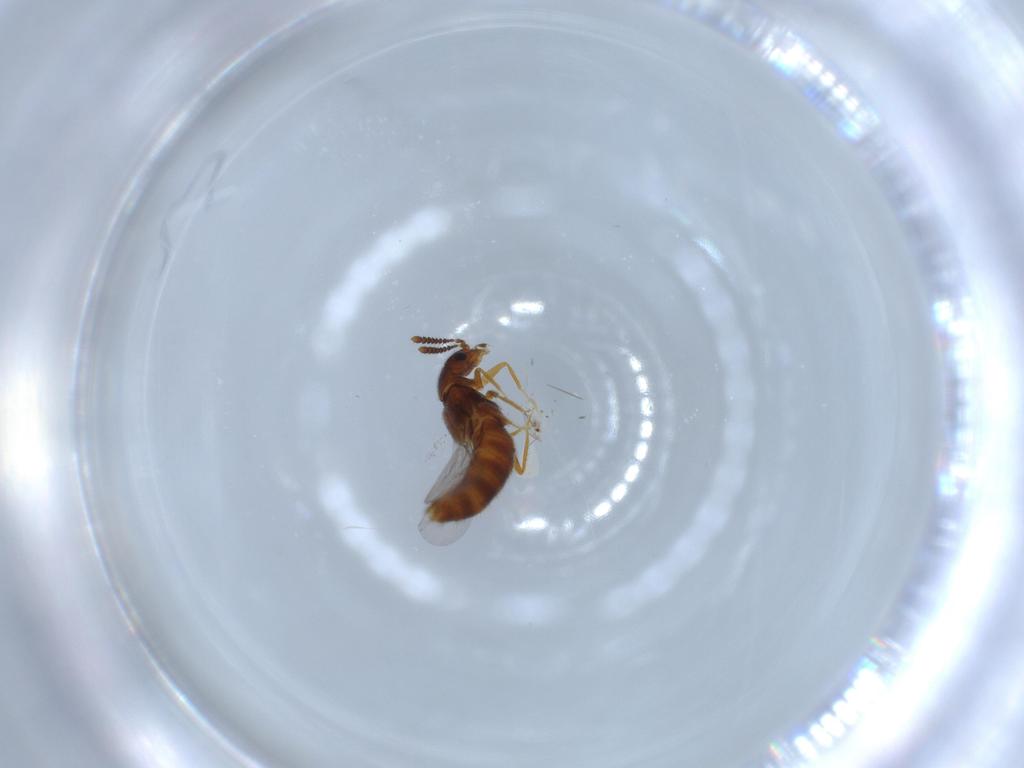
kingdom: Animalia
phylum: Arthropoda
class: Insecta
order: Coleoptera
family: Staphylinidae
